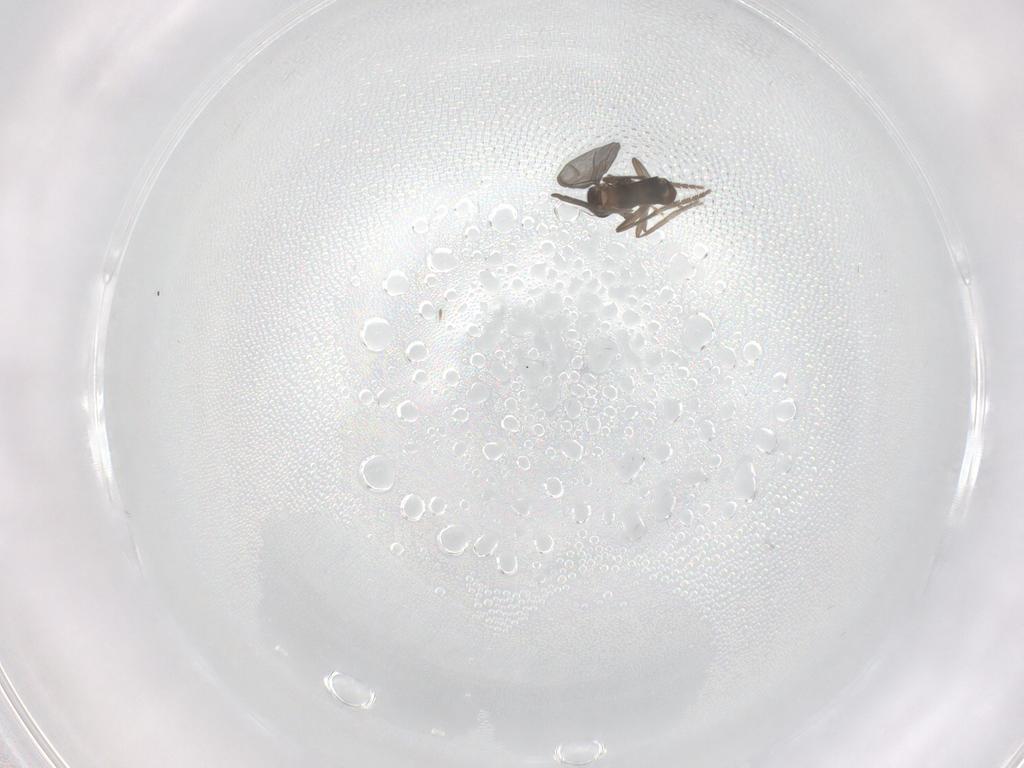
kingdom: Animalia
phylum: Arthropoda
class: Insecta
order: Diptera
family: Phoridae
